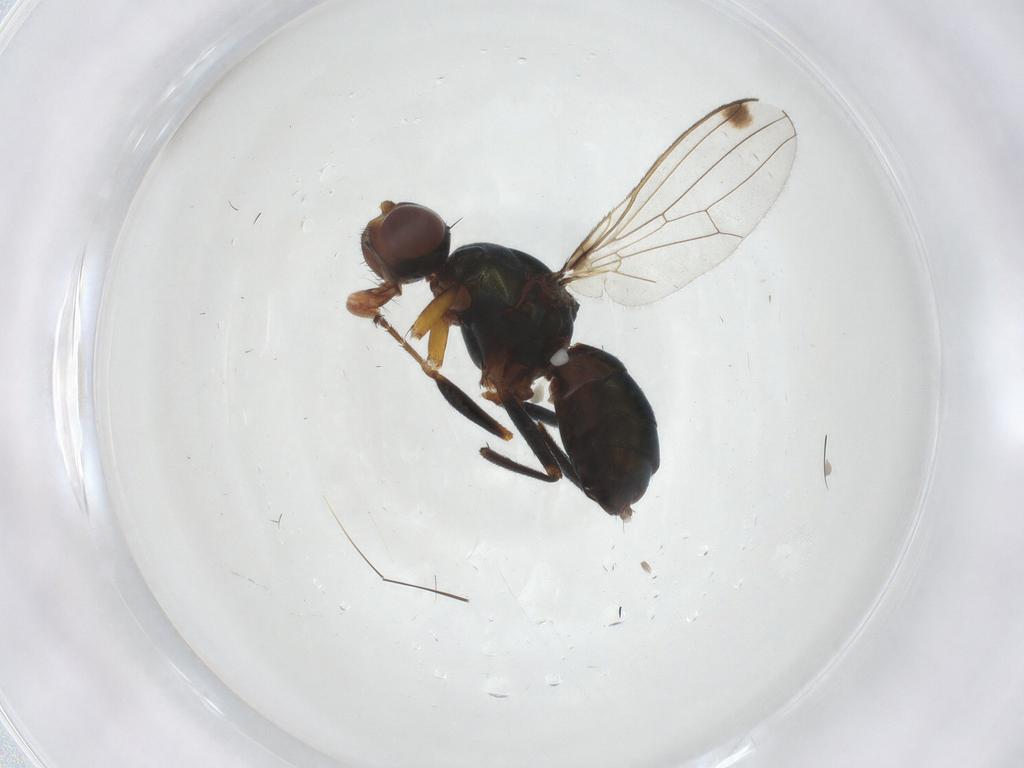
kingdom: Animalia
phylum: Arthropoda
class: Insecta
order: Diptera
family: Sepsidae
